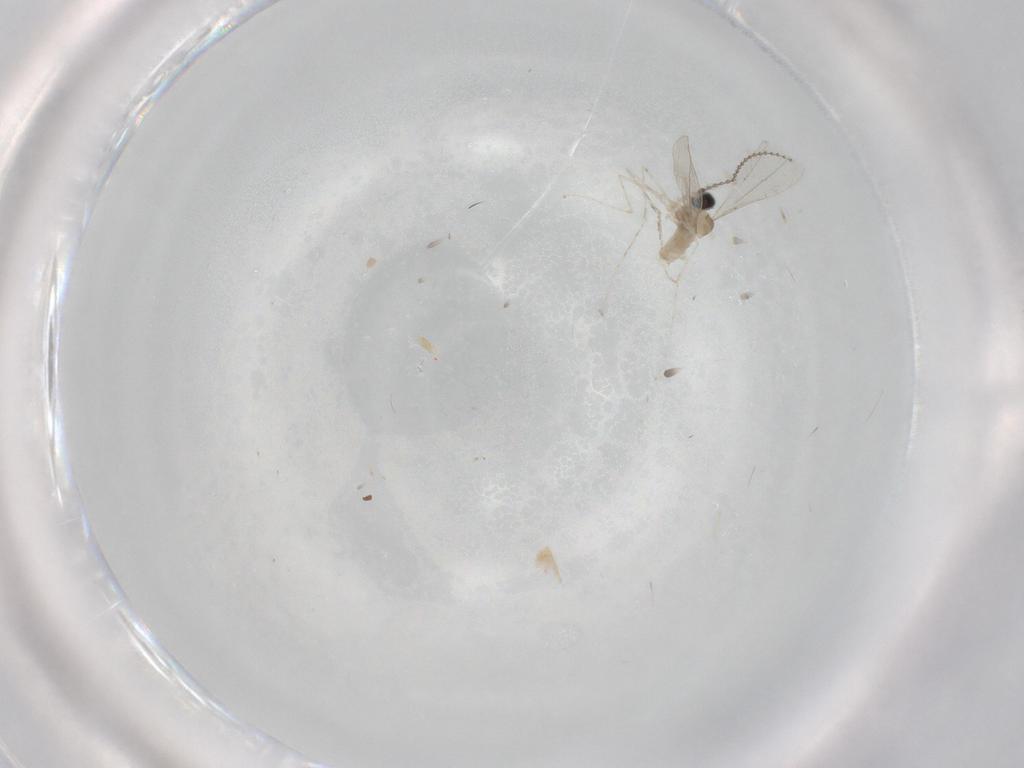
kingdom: Animalia
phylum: Arthropoda
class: Insecta
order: Diptera
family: Cecidomyiidae
